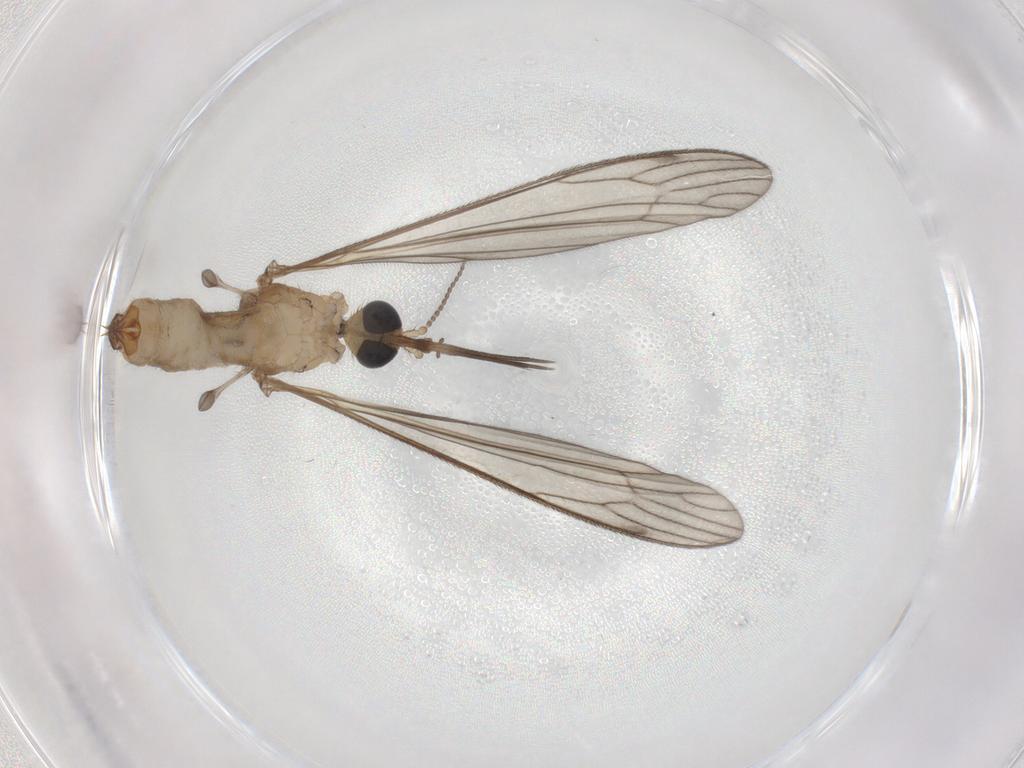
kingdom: Animalia
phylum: Arthropoda
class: Insecta
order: Diptera
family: Limoniidae
